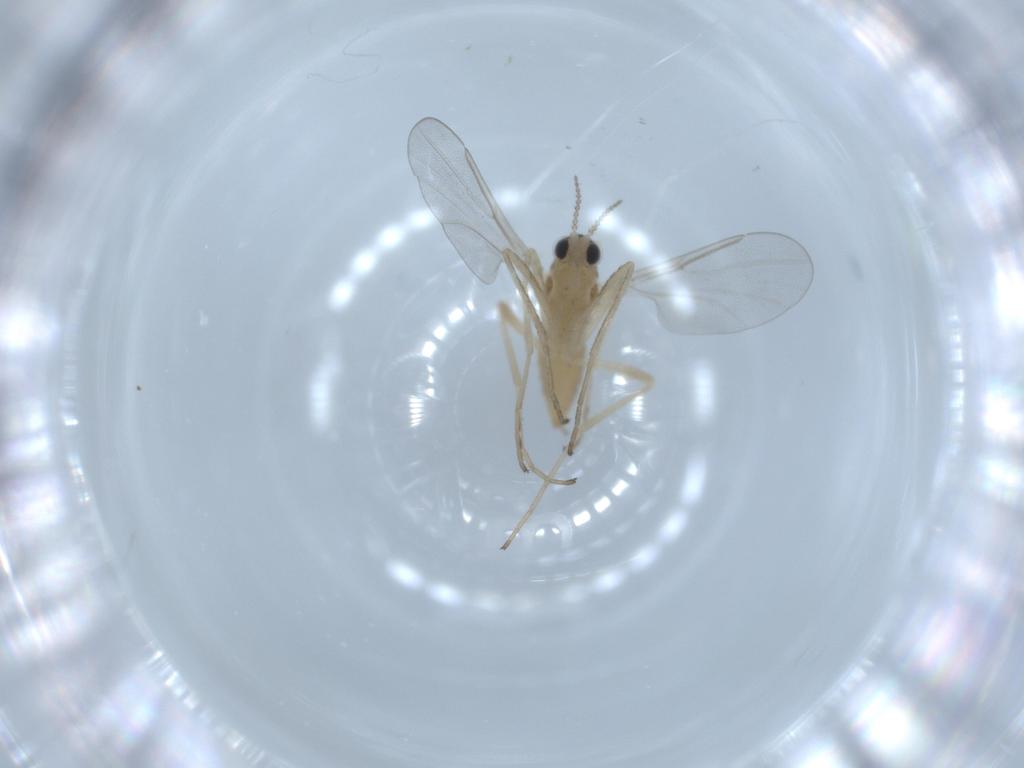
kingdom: Animalia
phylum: Arthropoda
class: Insecta
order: Diptera
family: Cecidomyiidae
